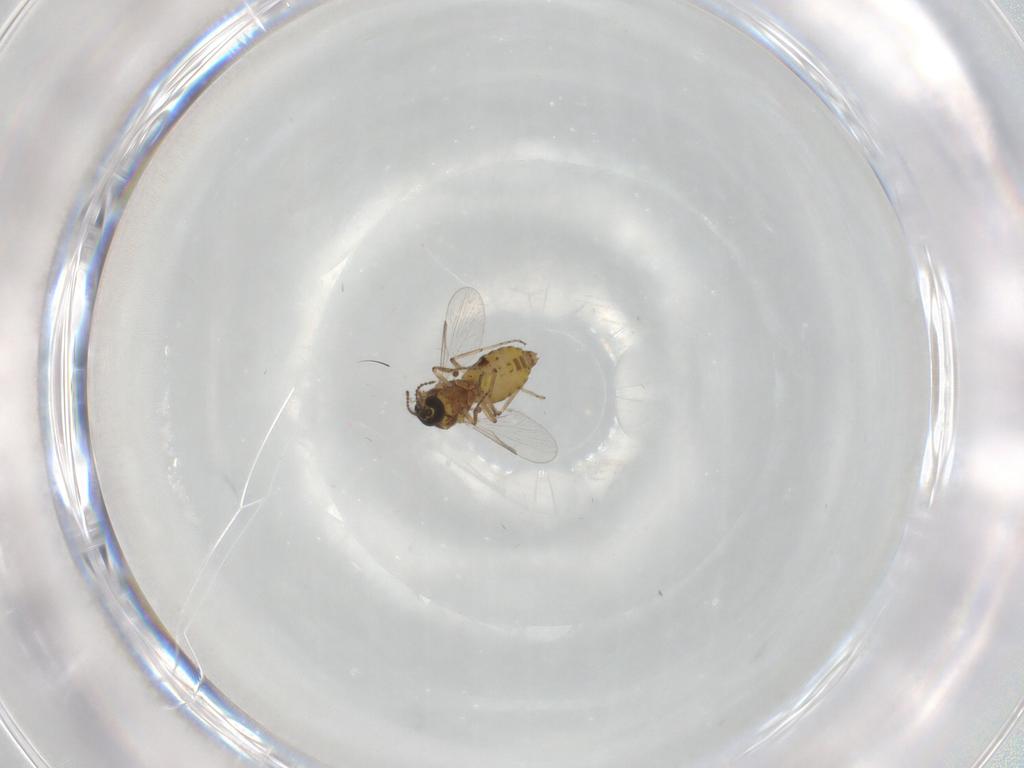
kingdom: Animalia
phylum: Arthropoda
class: Insecta
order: Diptera
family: Ceratopogonidae
